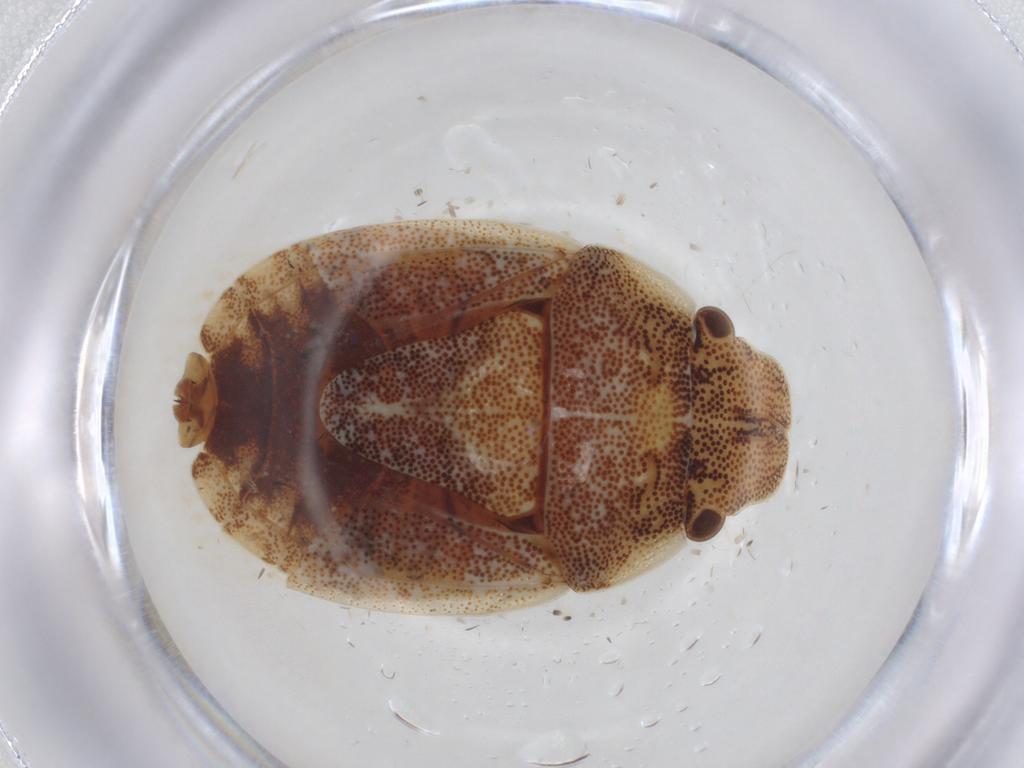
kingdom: Animalia
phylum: Arthropoda
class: Insecta
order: Hemiptera
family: Pentatomidae
